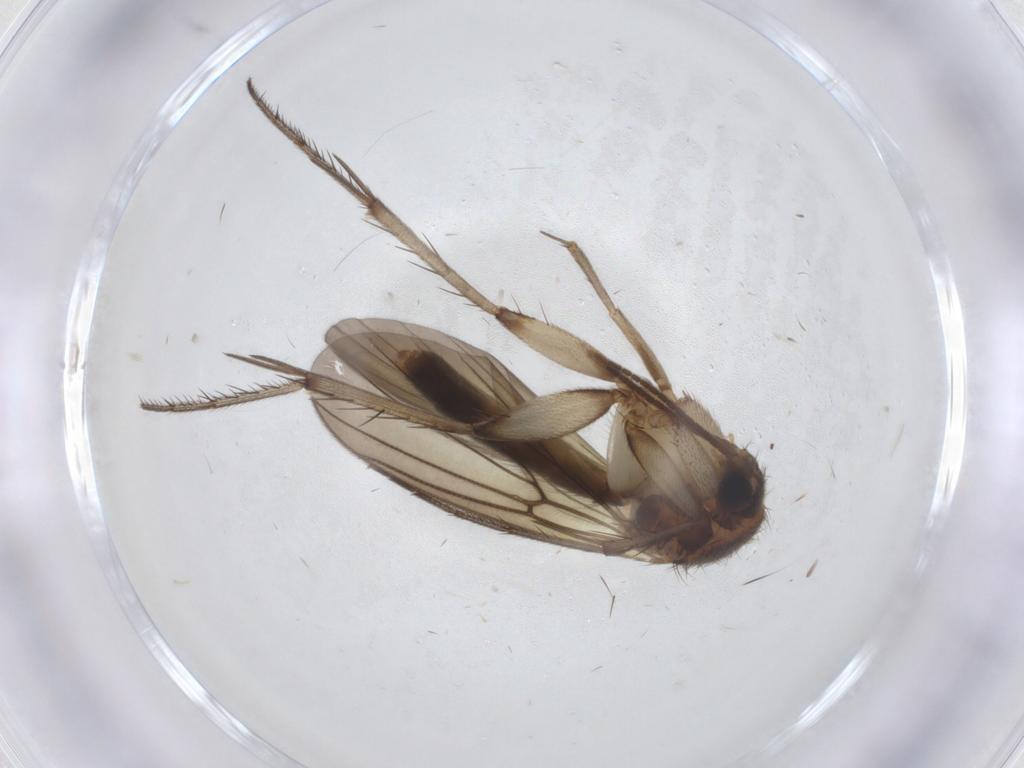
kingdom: Animalia
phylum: Arthropoda
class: Insecta
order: Diptera
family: Mycetophilidae
